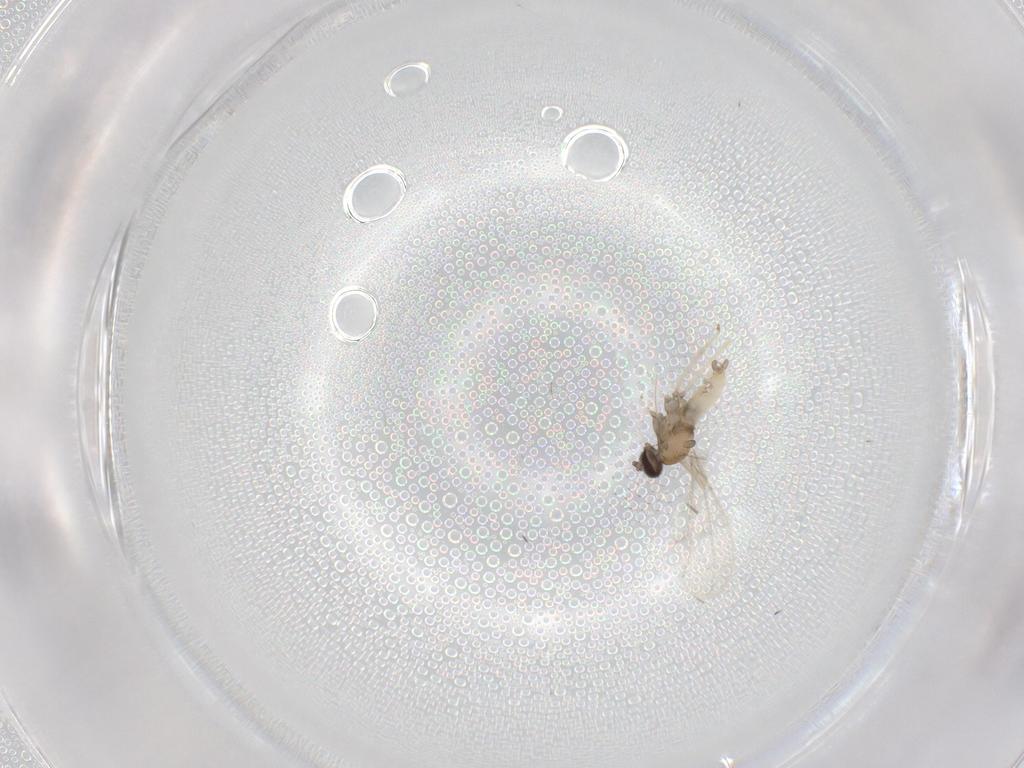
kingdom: Animalia
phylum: Arthropoda
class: Insecta
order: Diptera
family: Cecidomyiidae
